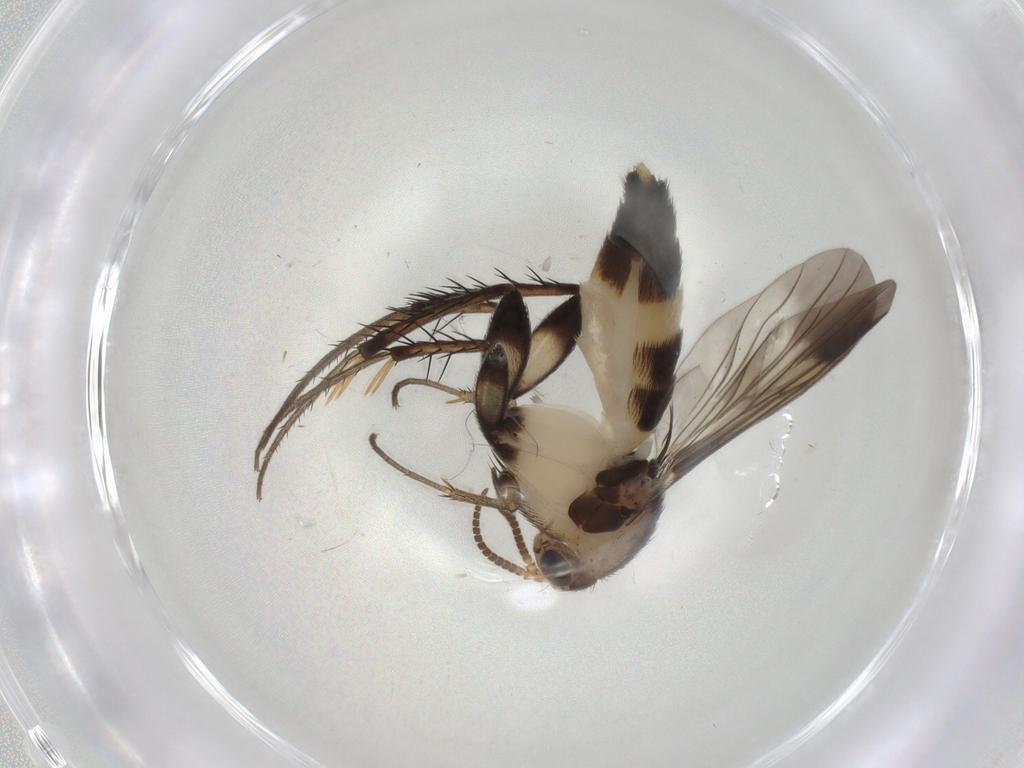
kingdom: Animalia
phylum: Arthropoda
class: Insecta
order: Diptera
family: Mycetophilidae
